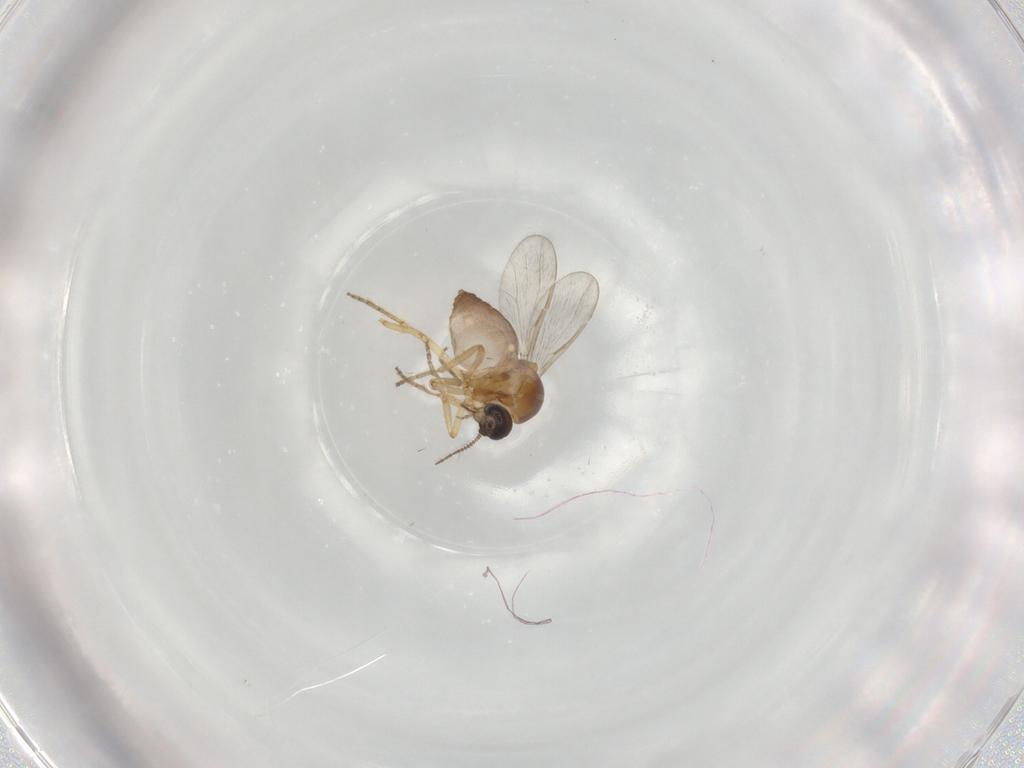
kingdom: Animalia
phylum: Arthropoda
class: Insecta
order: Diptera
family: Ceratopogonidae
